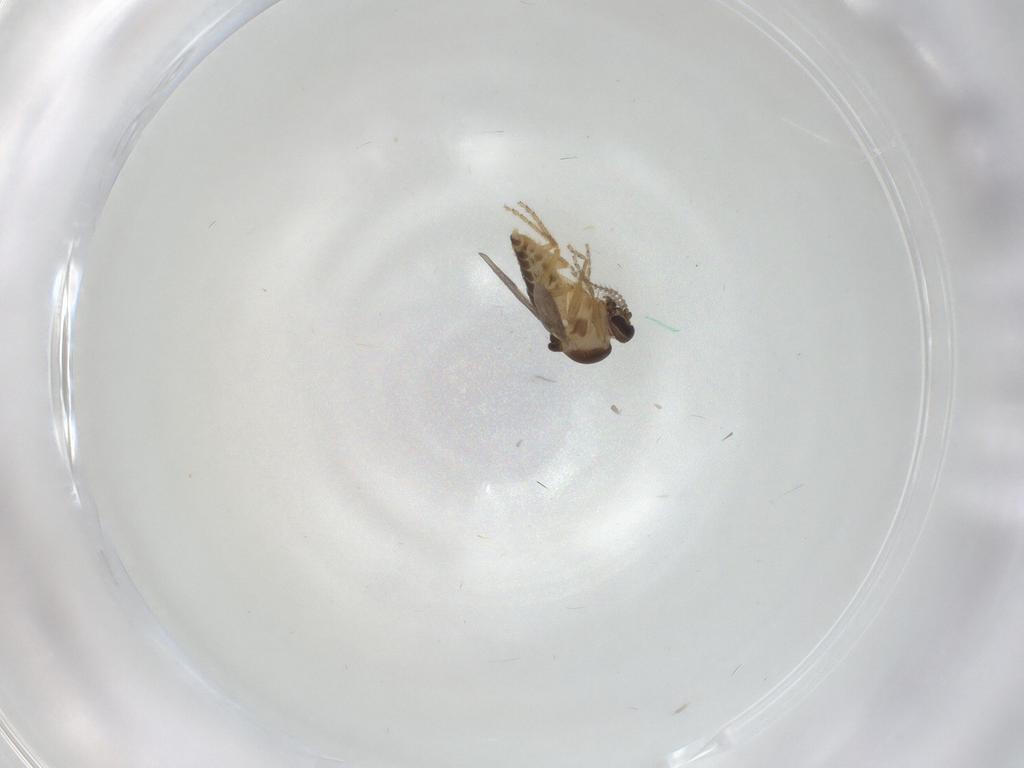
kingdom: Animalia
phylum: Arthropoda
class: Insecta
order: Diptera
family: Ceratopogonidae
